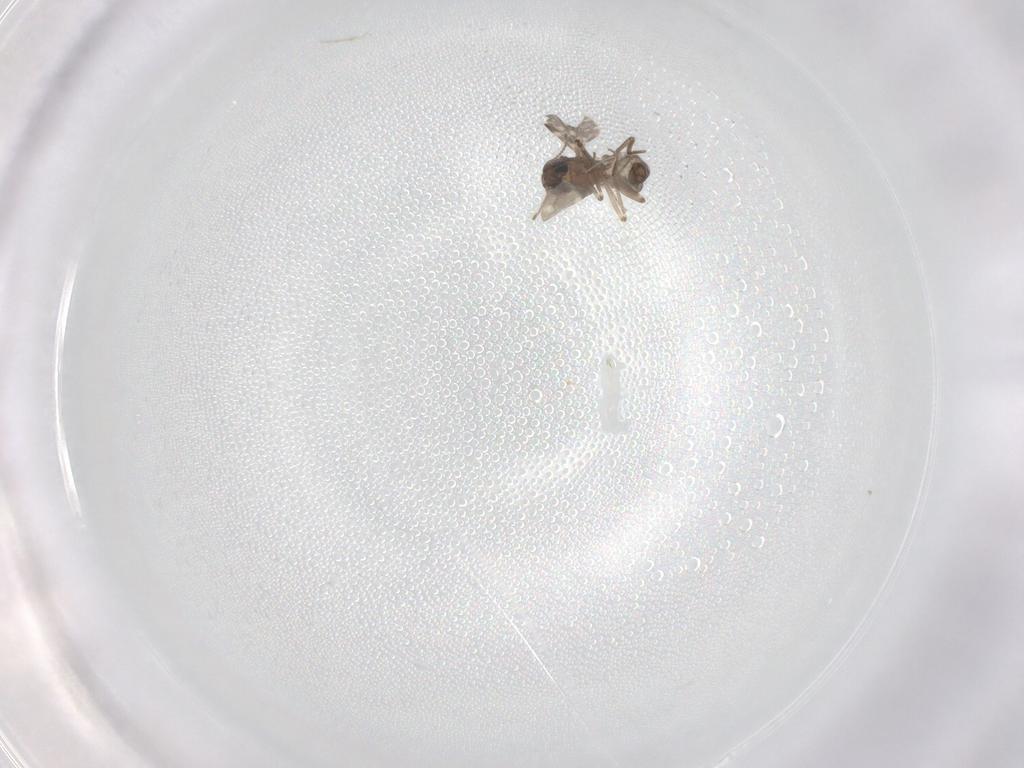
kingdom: Animalia
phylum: Arthropoda
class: Insecta
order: Diptera
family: Ceratopogonidae
